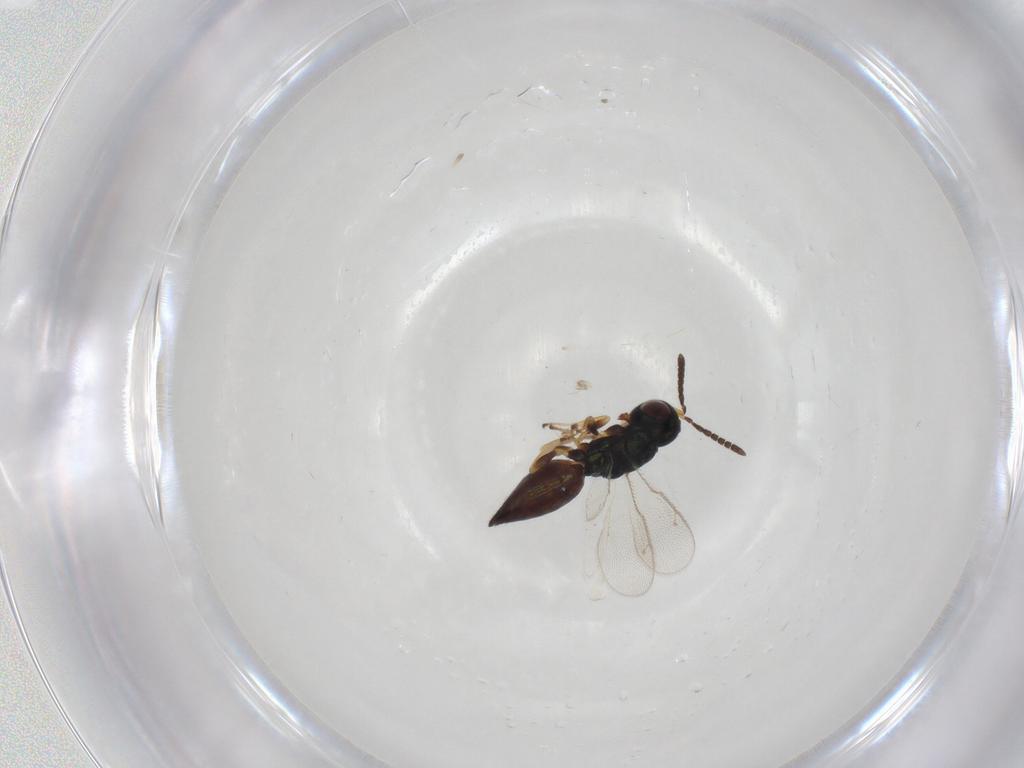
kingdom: Animalia
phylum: Arthropoda
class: Insecta
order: Hymenoptera
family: Pteromalidae
